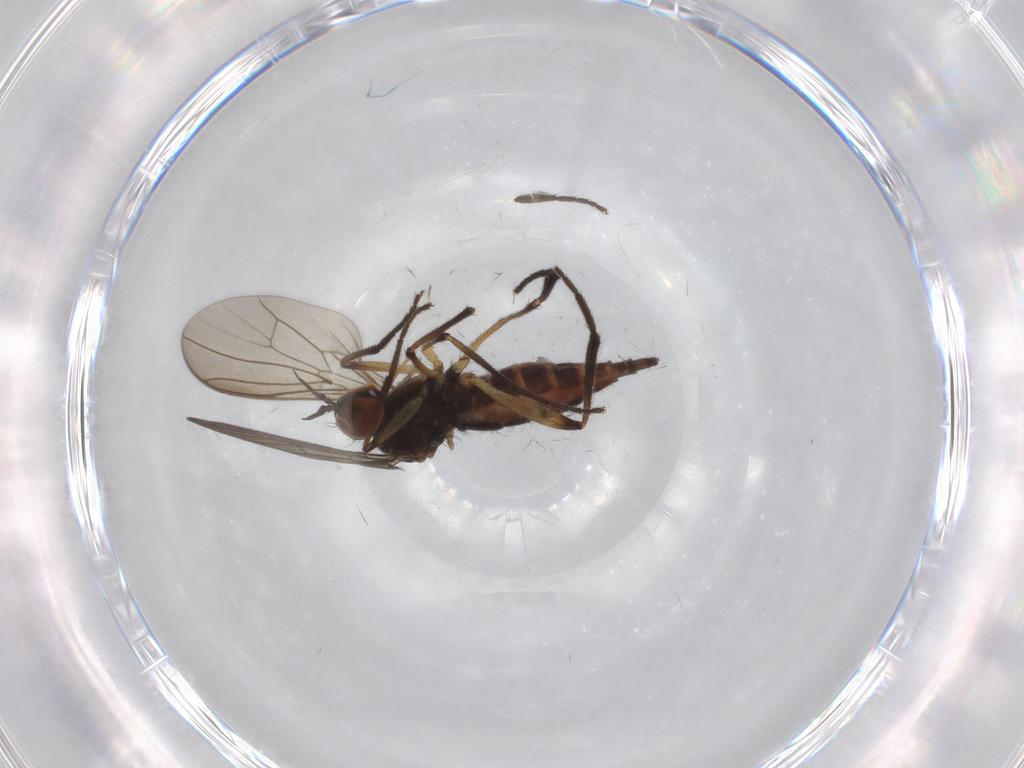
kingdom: Animalia
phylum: Arthropoda
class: Insecta
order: Diptera
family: Empididae
